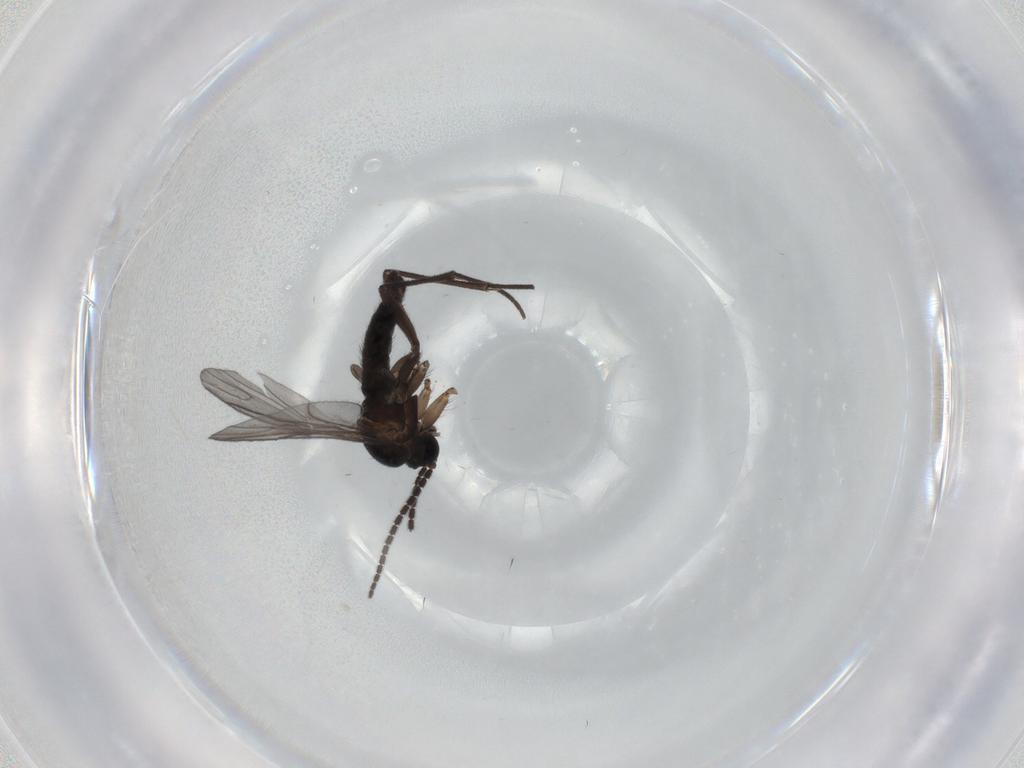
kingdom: Animalia
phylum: Arthropoda
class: Insecta
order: Diptera
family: Sciaridae
